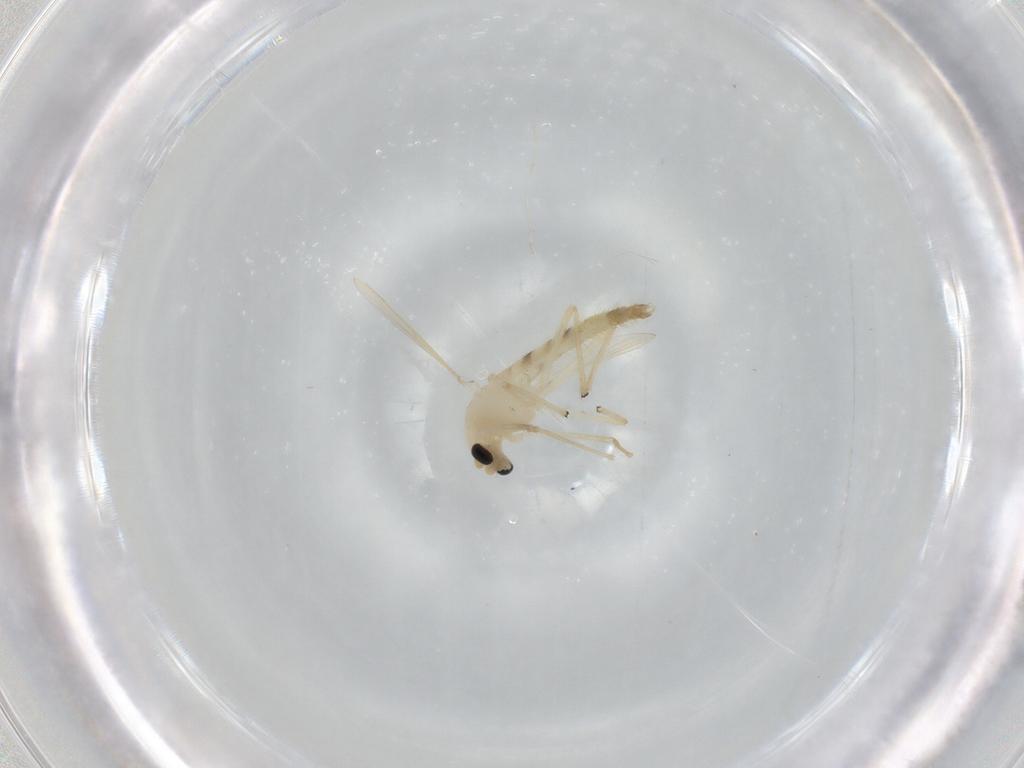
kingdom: Animalia
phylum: Arthropoda
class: Insecta
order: Diptera
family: Chironomidae
